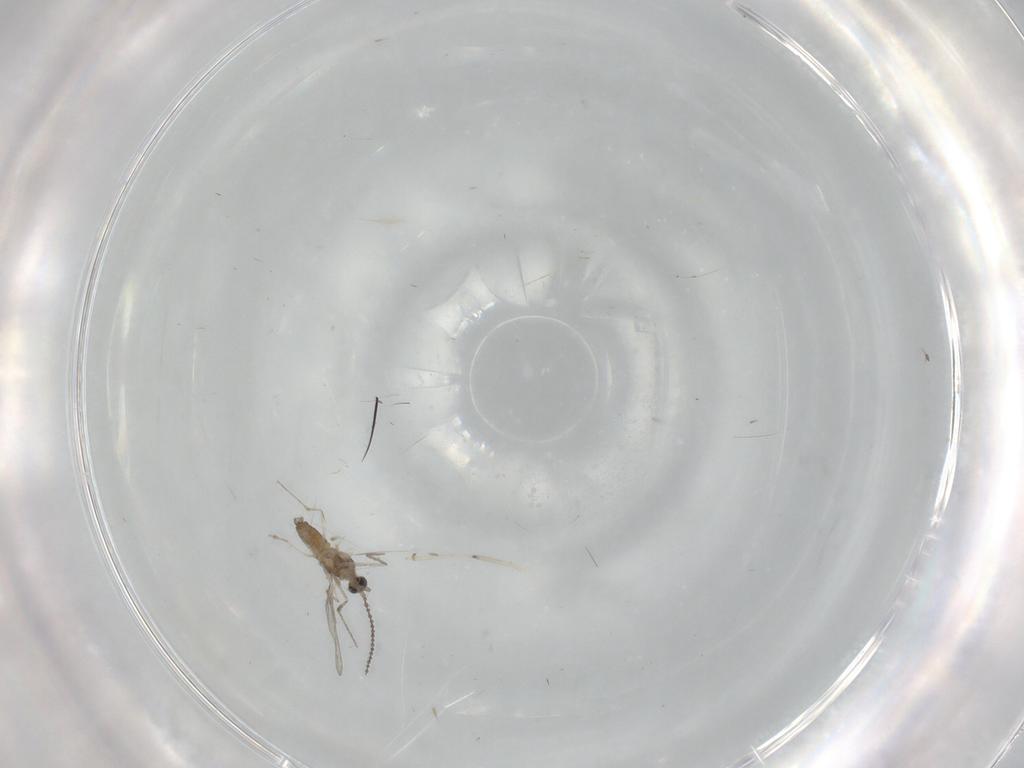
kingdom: Animalia
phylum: Arthropoda
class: Insecta
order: Diptera
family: Cecidomyiidae
